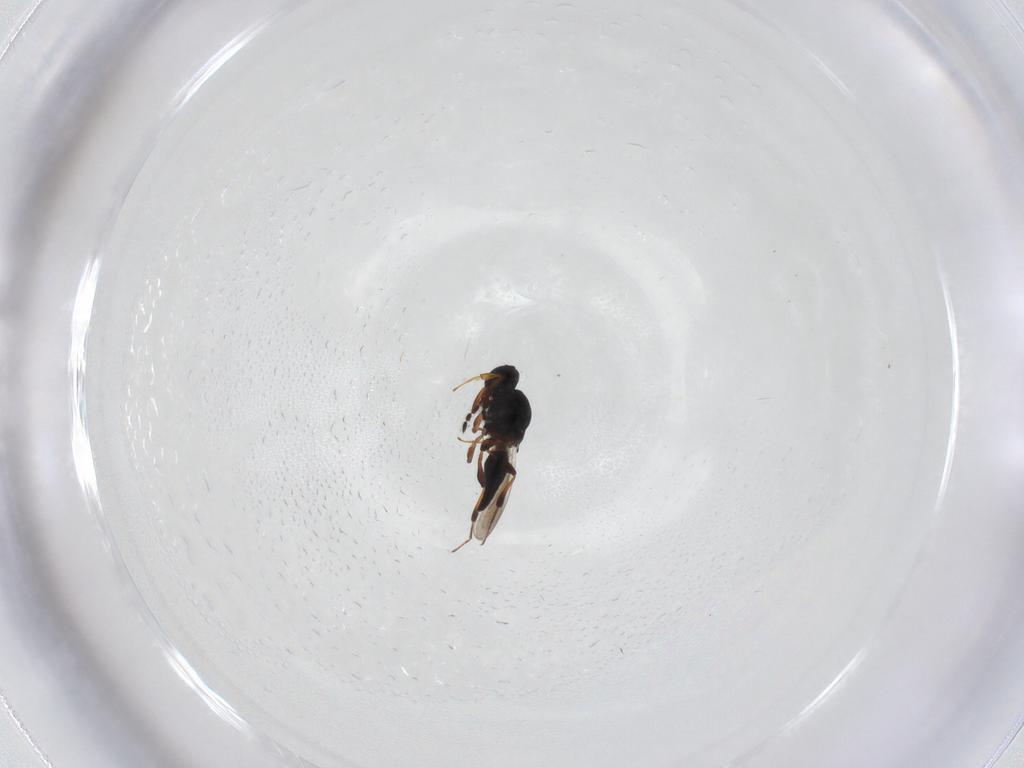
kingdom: Animalia
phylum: Arthropoda
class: Insecta
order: Hymenoptera
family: Platygastridae
